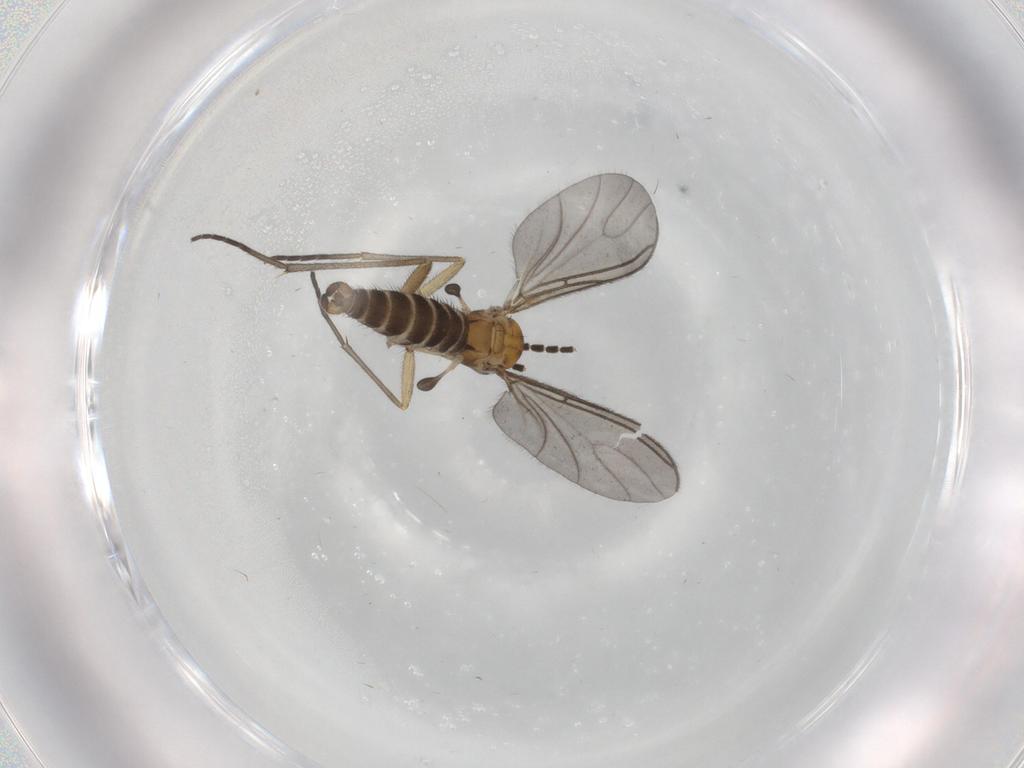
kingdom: Animalia
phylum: Arthropoda
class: Insecta
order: Diptera
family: Sciaridae
